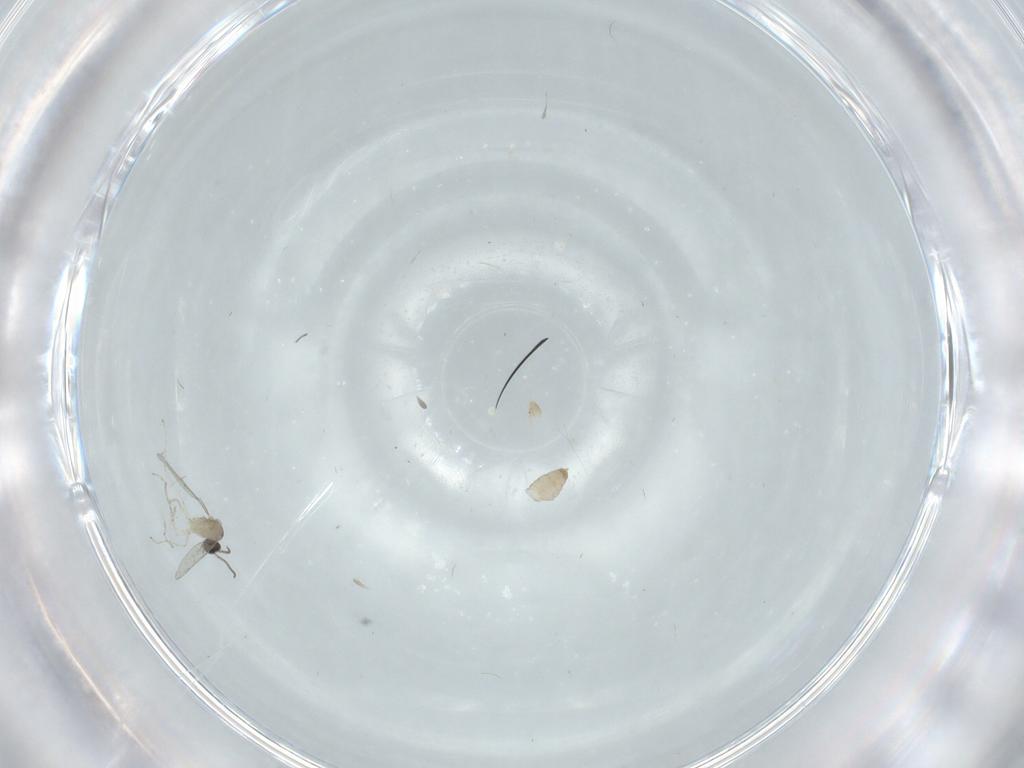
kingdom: Animalia
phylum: Arthropoda
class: Insecta
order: Diptera
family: Cecidomyiidae
